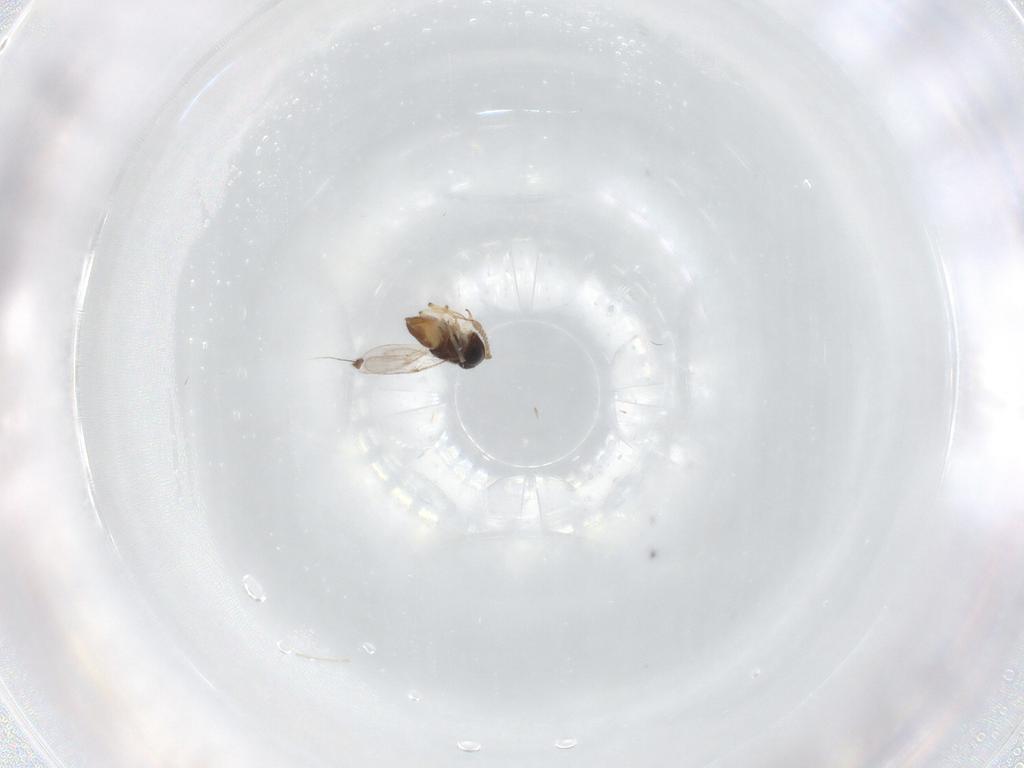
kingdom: Animalia
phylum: Arthropoda
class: Insecta
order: Hymenoptera
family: Encyrtidae
